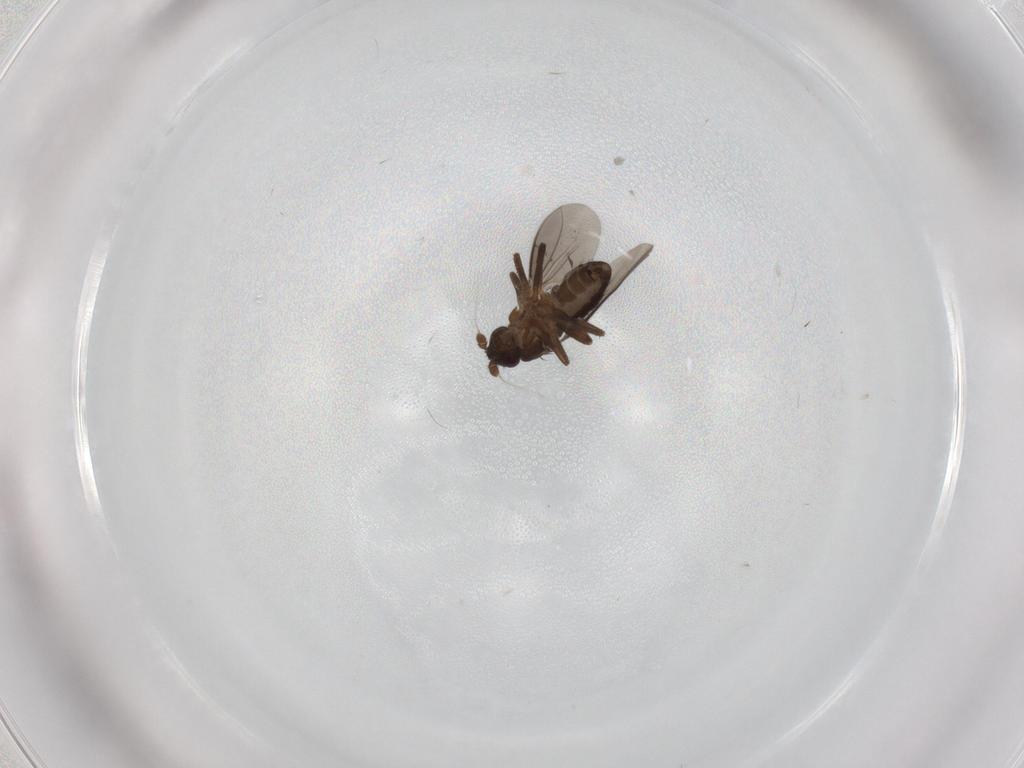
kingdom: Animalia
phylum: Arthropoda
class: Insecta
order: Diptera
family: Sphaeroceridae
